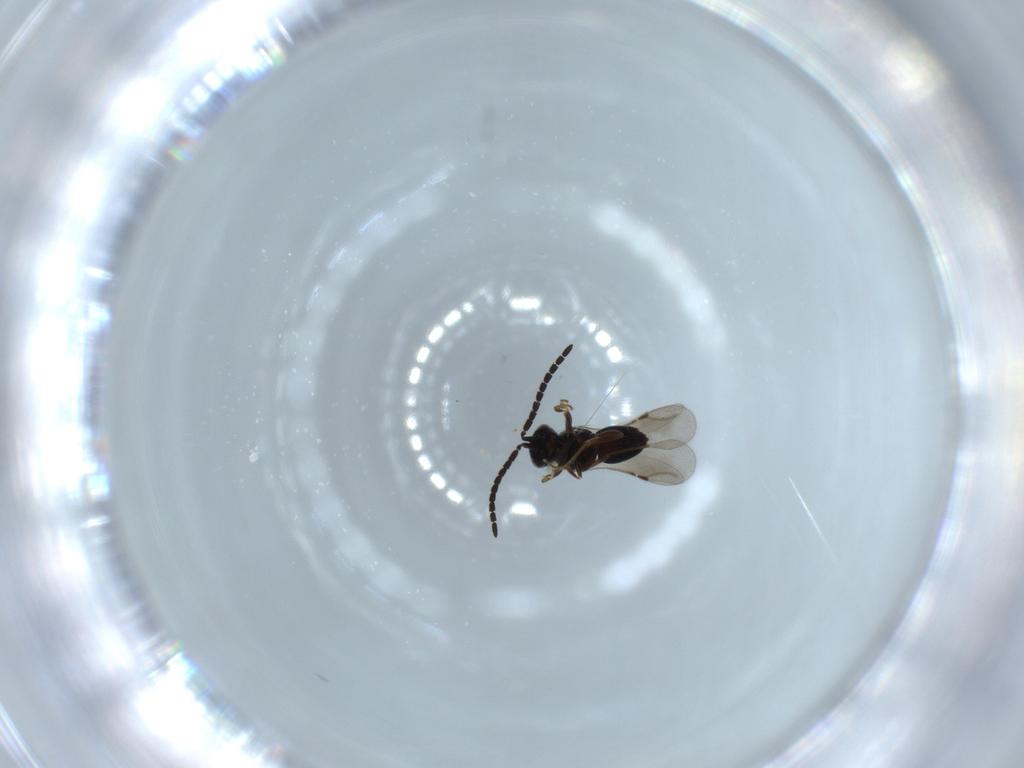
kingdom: Animalia
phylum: Arthropoda
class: Insecta
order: Hymenoptera
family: Ceraphronidae
